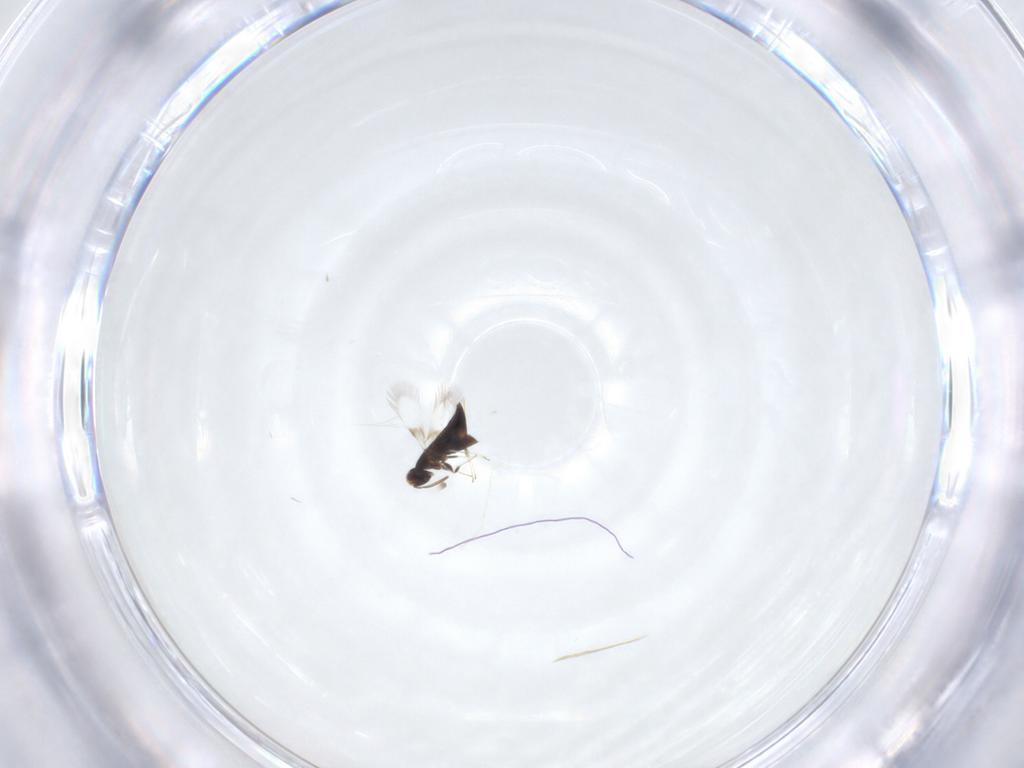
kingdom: Animalia
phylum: Arthropoda
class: Insecta
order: Hymenoptera
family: Signiphoridae
